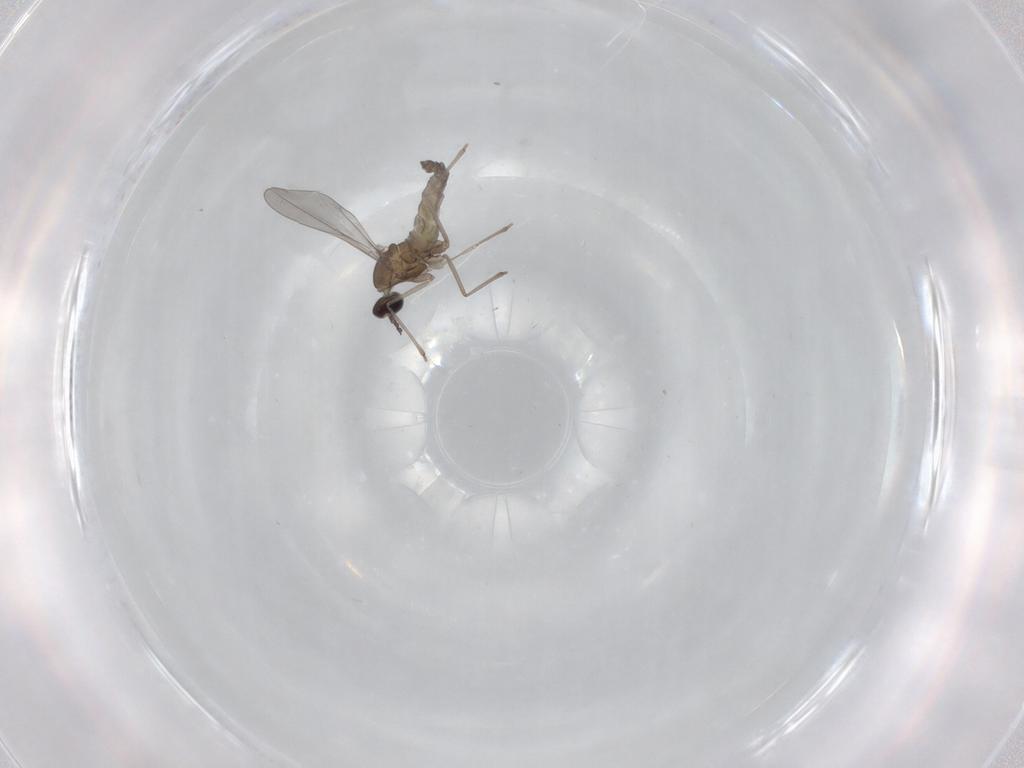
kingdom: Animalia
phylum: Arthropoda
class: Insecta
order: Diptera
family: Cecidomyiidae
